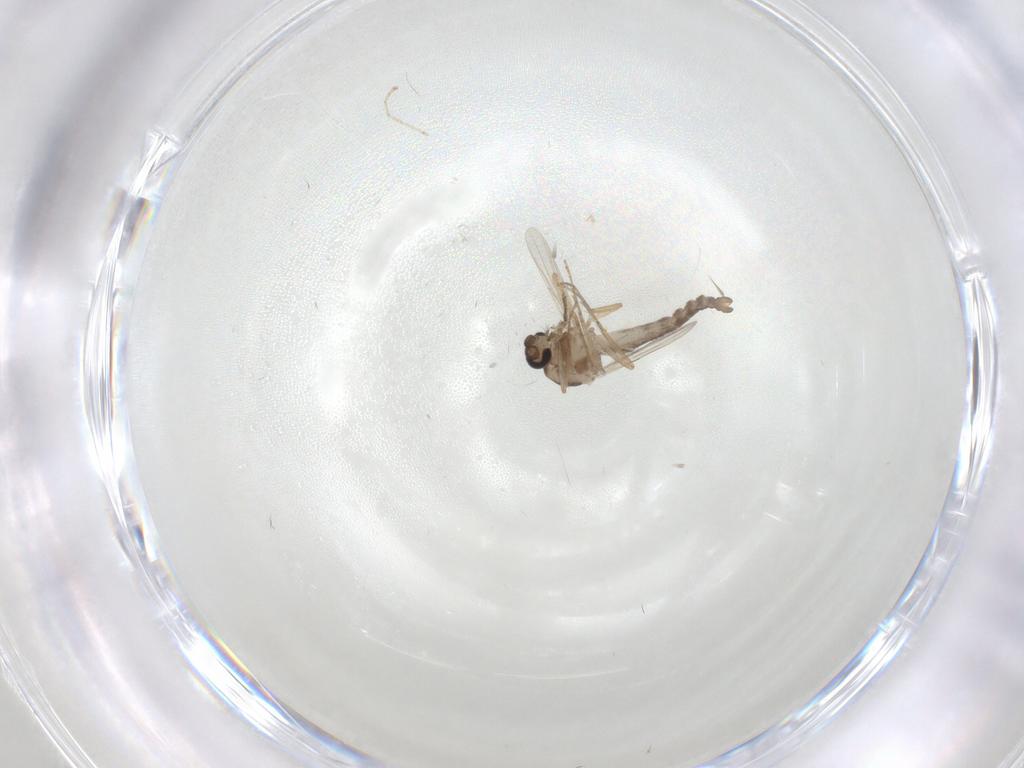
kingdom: Animalia
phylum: Arthropoda
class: Insecta
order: Diptera
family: Ceratopogonidae
